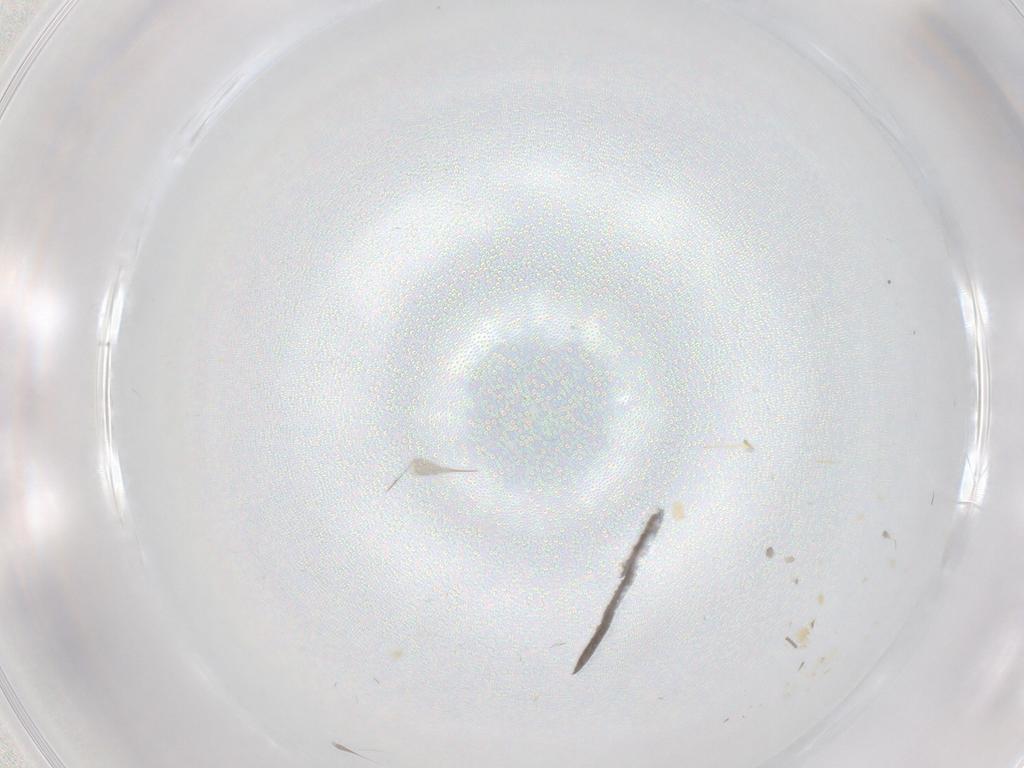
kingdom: Animalia
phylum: Arthropoda
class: Insecta
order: Diptera
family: Cecidomyiidae
